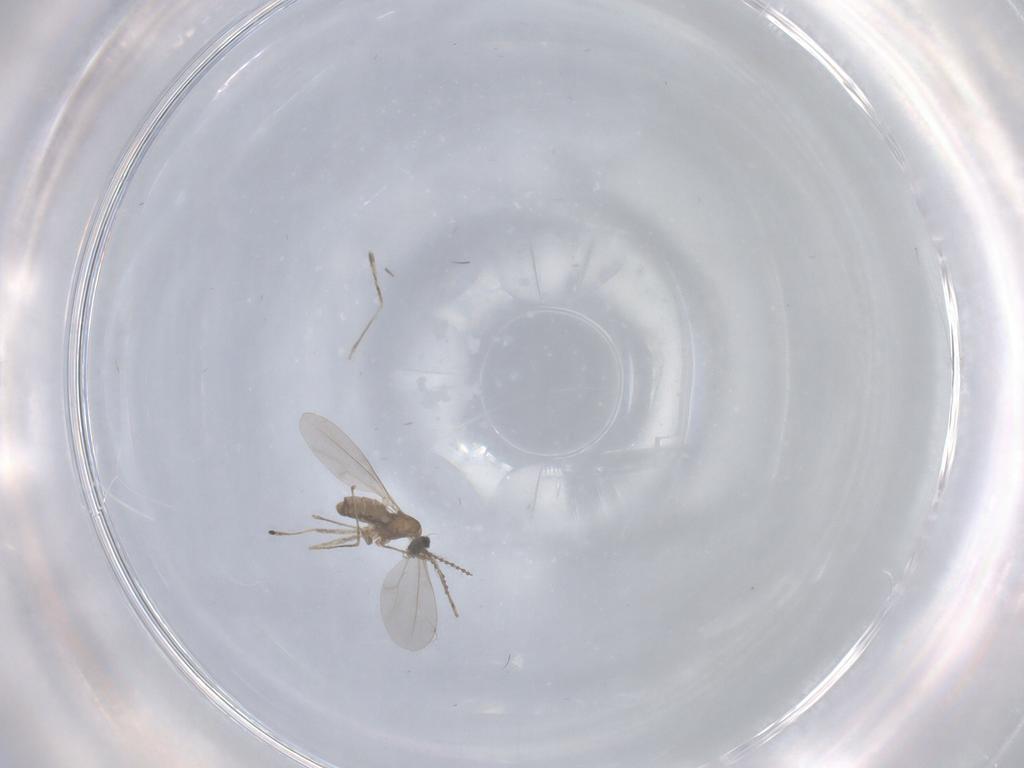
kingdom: Animalia
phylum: Arthropoda
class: Insecta
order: Diptera
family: Cecidomyiidae
